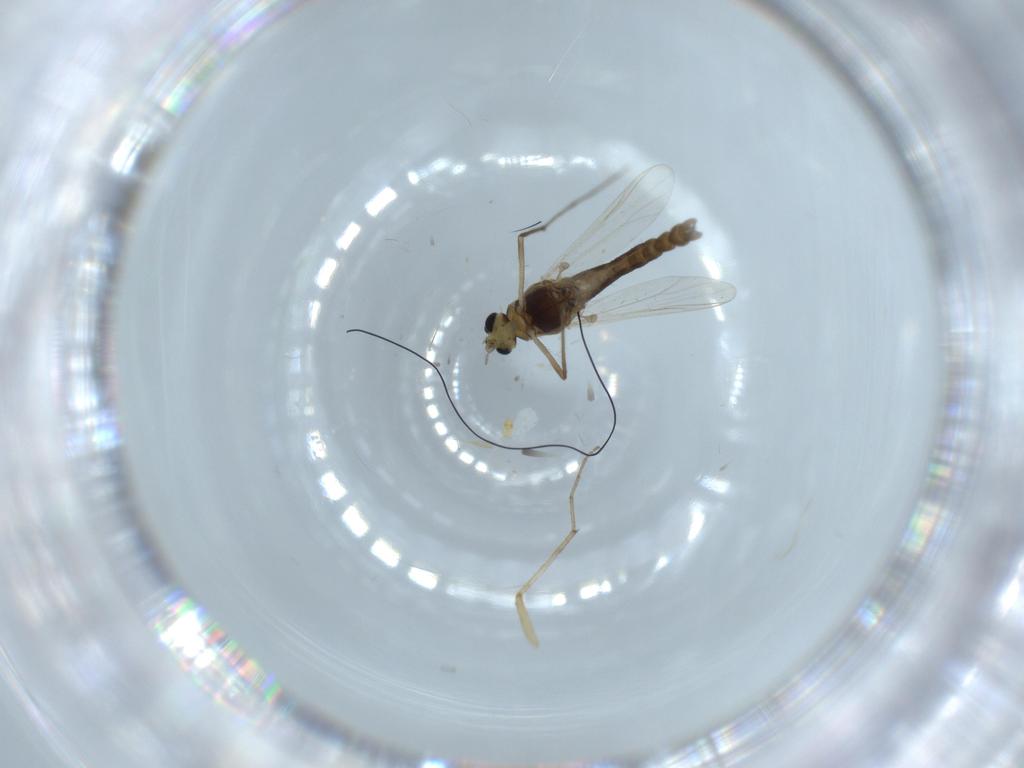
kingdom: Animalia
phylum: Arthropoda
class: Insecta
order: Diptera
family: Chironomidae
